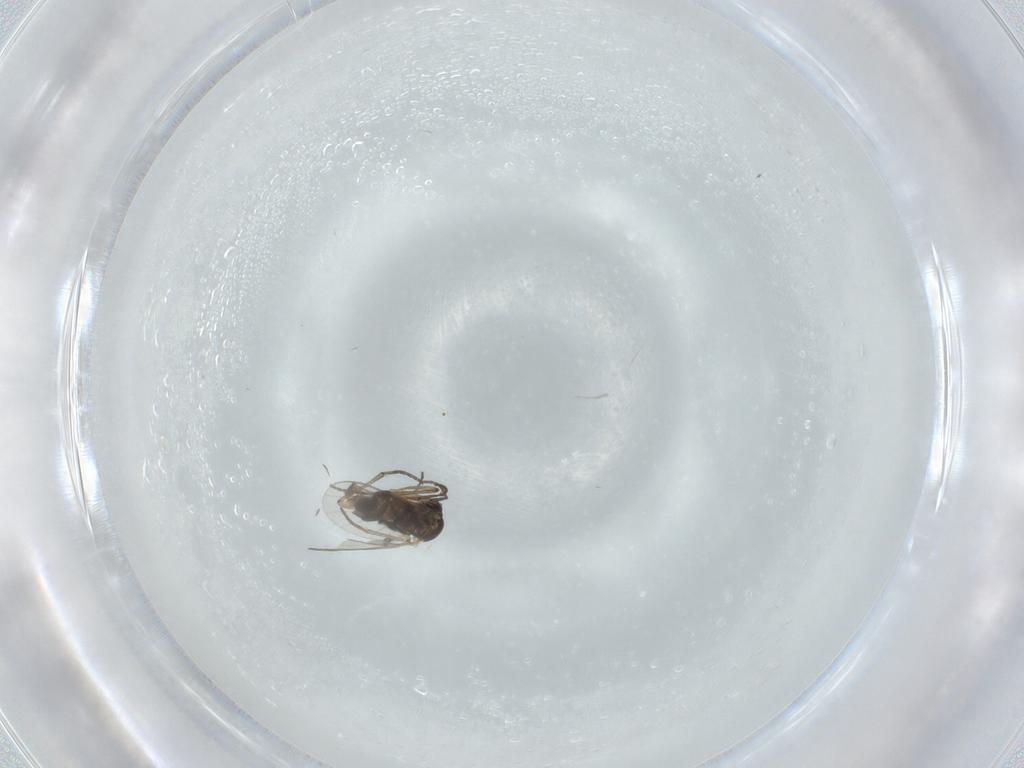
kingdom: Animalia
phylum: Arthropoda
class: Insecta
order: Diptera
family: Sciaridae
